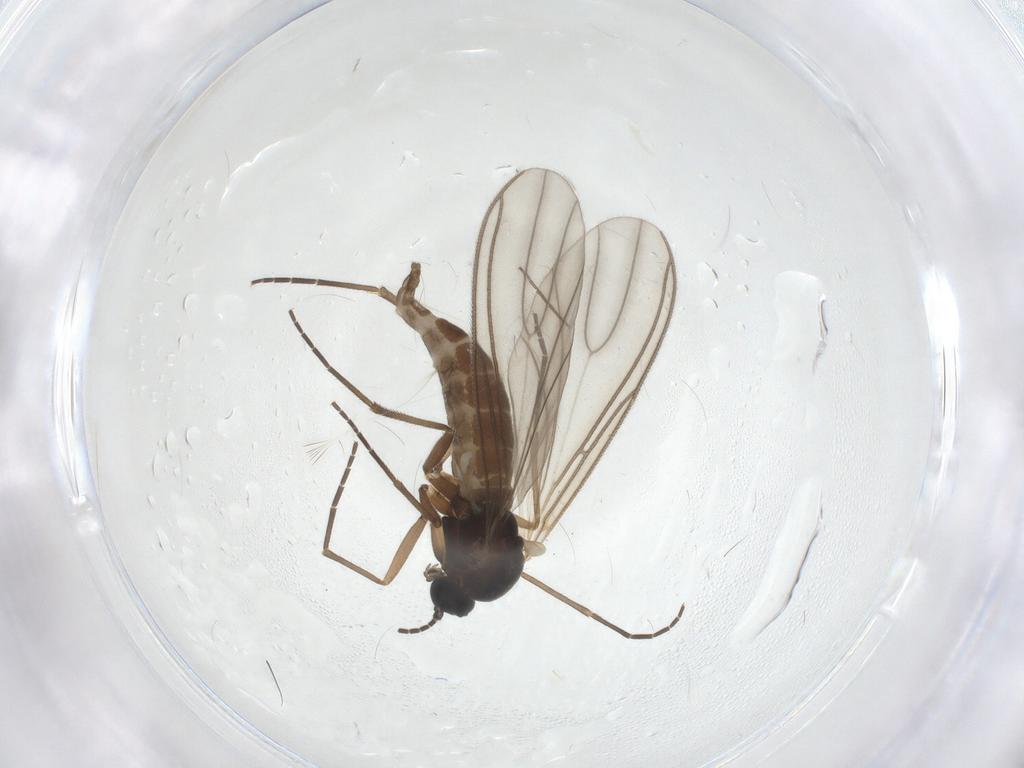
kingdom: Animalia
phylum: Arthropoda
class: Insecta
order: Diptera
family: Sciaridae
